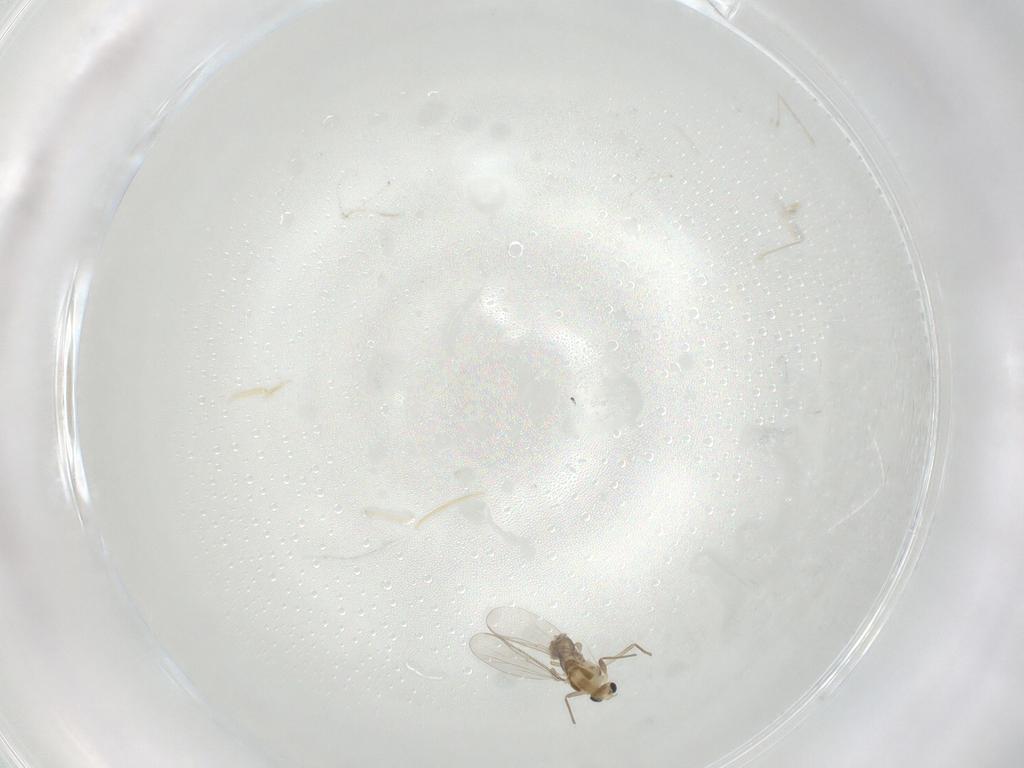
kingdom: Animalia
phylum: Arthropoda
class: Insecta
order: Diptera
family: Chironomidae
